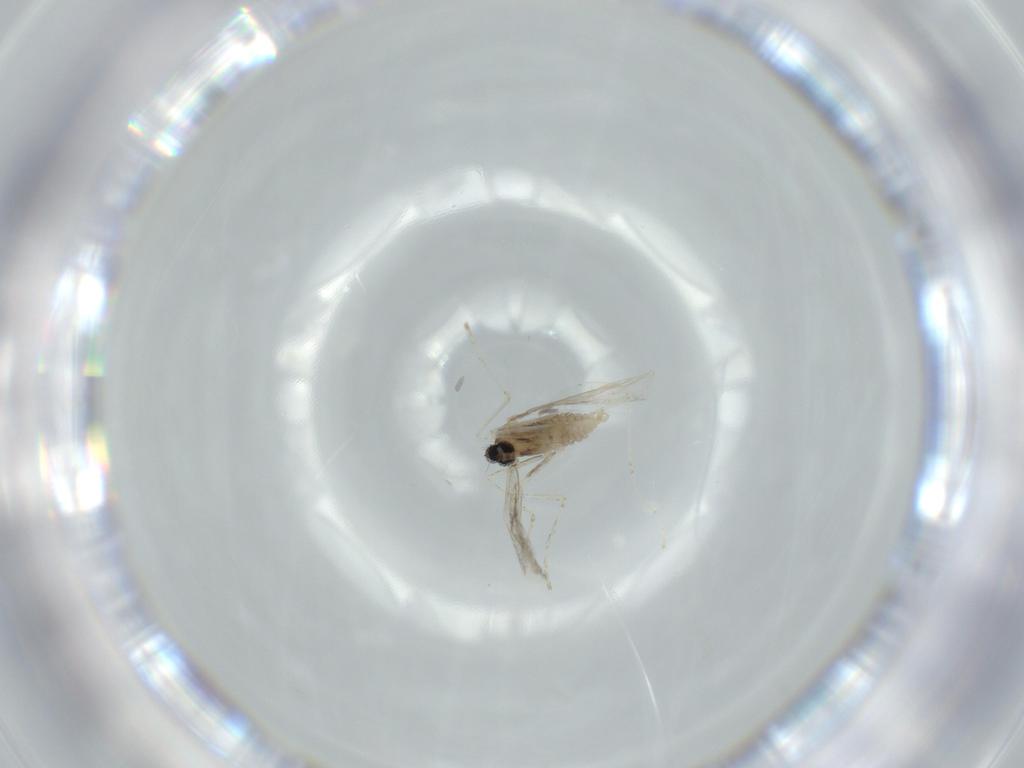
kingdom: Animalia
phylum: Arthropoda
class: Insecta
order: Diptera
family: Cecidomyiidae
